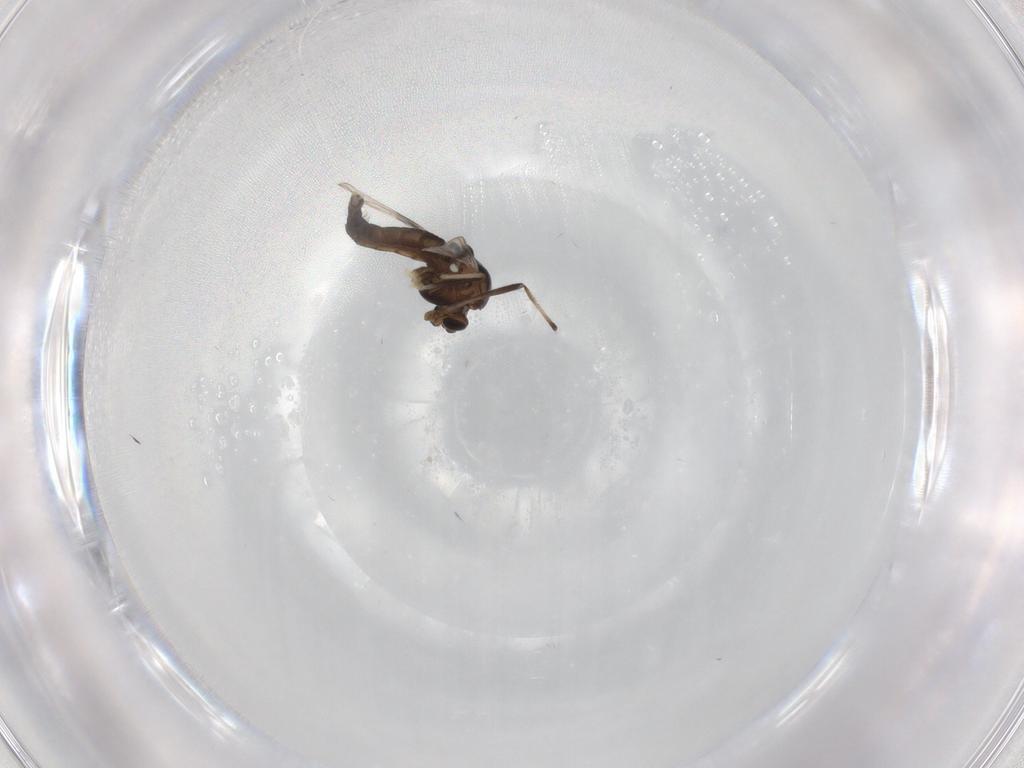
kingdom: Animalia
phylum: Arthropoda
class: Insecta
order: Diptera
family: Chironomidae
